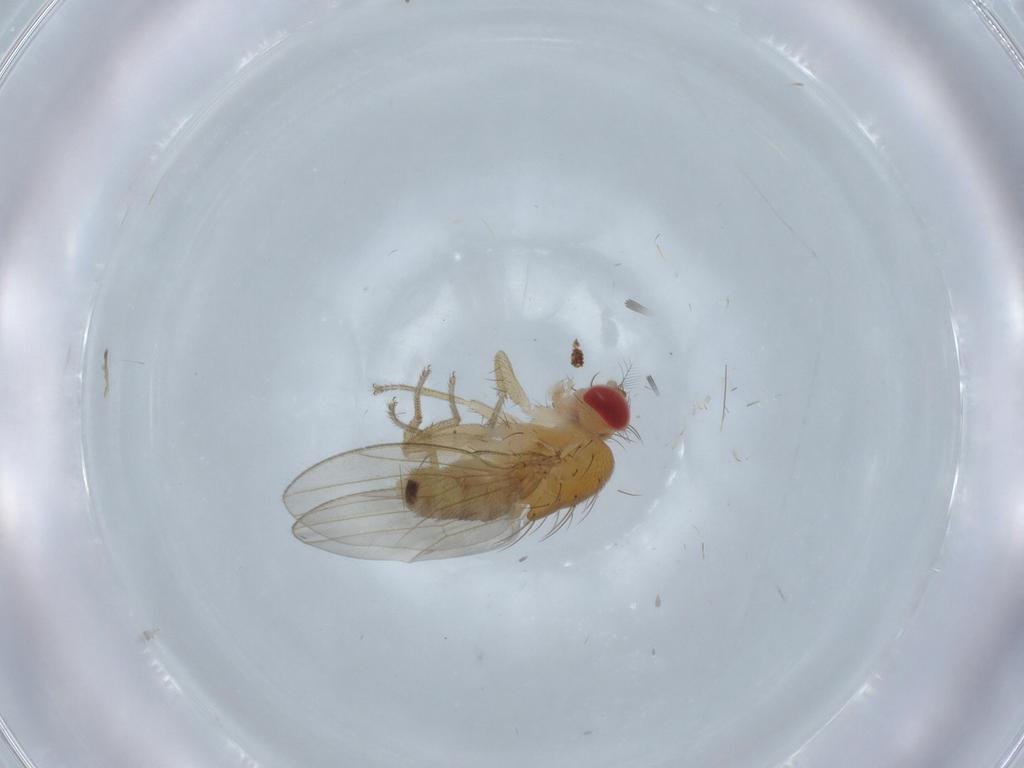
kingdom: Animalia
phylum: Arthropoda
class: Insecta
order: Diptera
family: Drosophilidae
